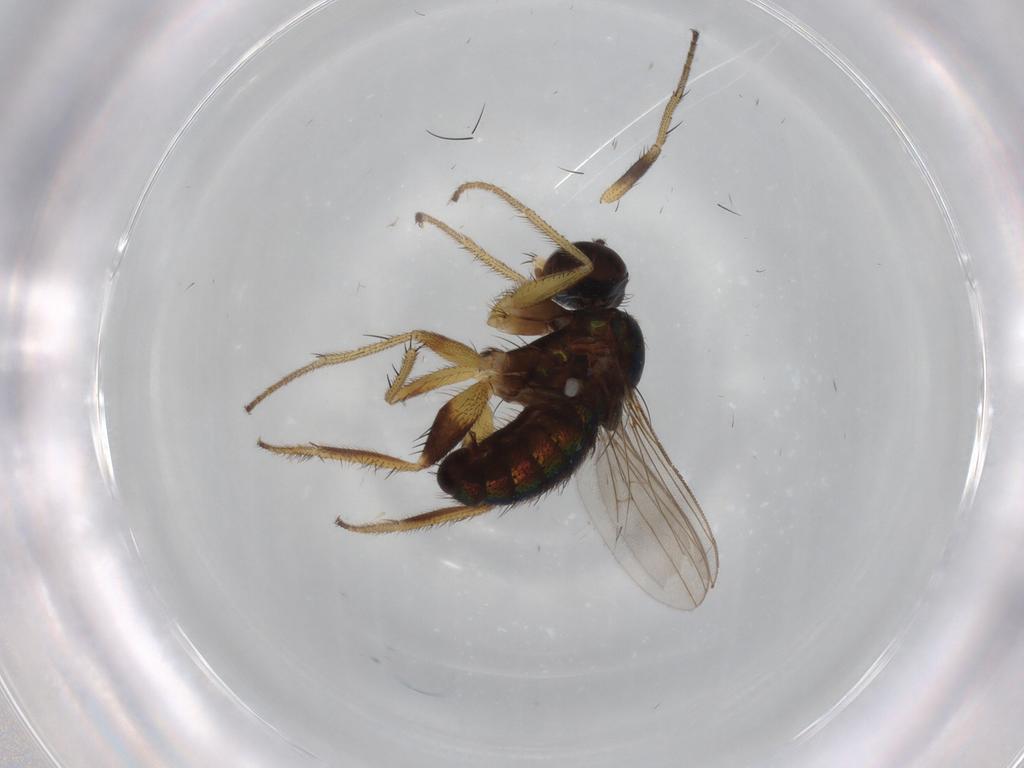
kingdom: Animalia
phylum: Arthropoda
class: Insecta
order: Diptera
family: Dolichopodidae
